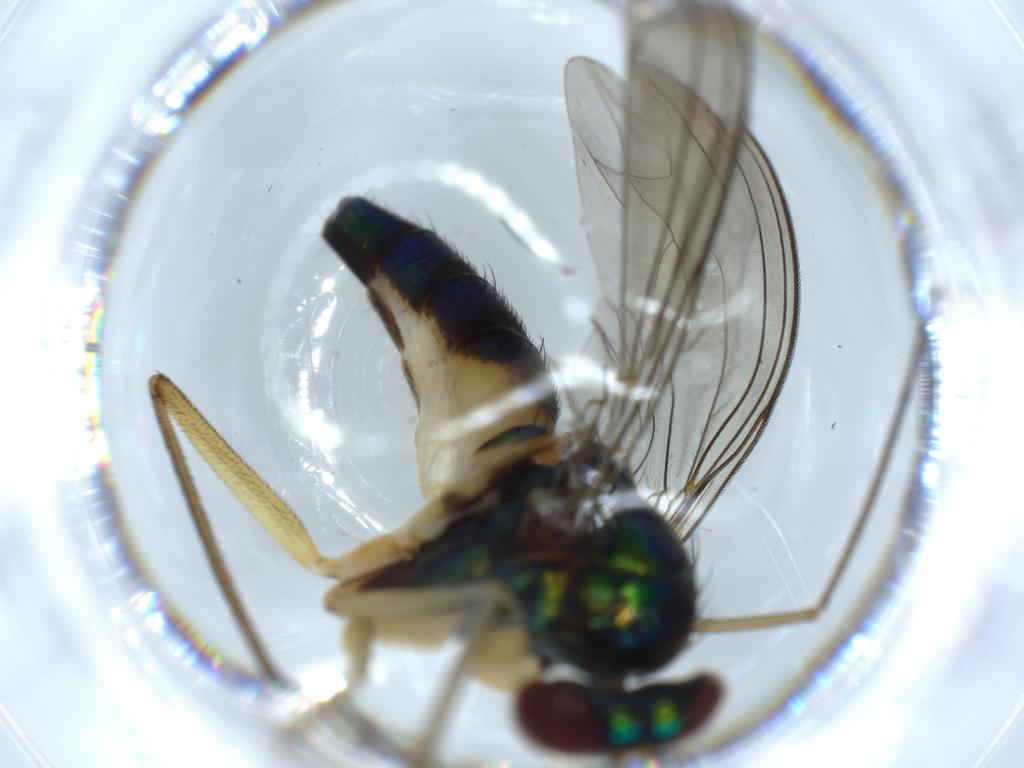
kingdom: Animalia
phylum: Arthropoda
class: Insecta
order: Diptera
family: Dolichopodidae
